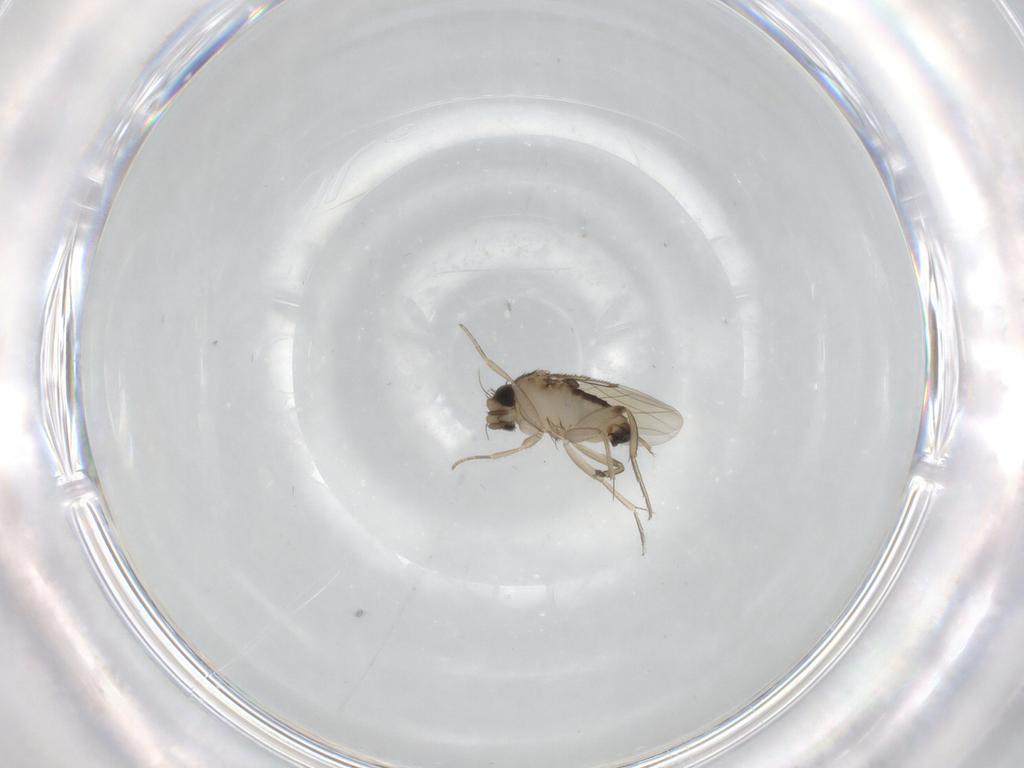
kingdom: Animalia
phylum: Arthropoda
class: Insecta
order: Diptera
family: Phoridae
